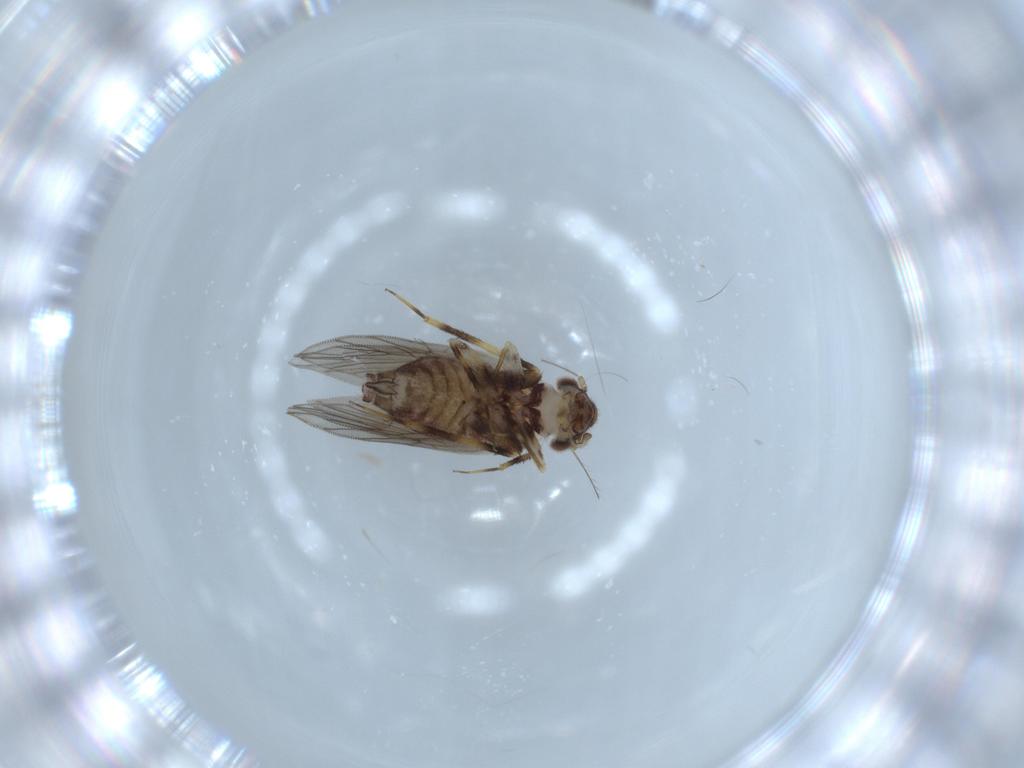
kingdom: Animalia
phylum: Arthropoda
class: Insecta
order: Psocodea
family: Lepidopsocidae
